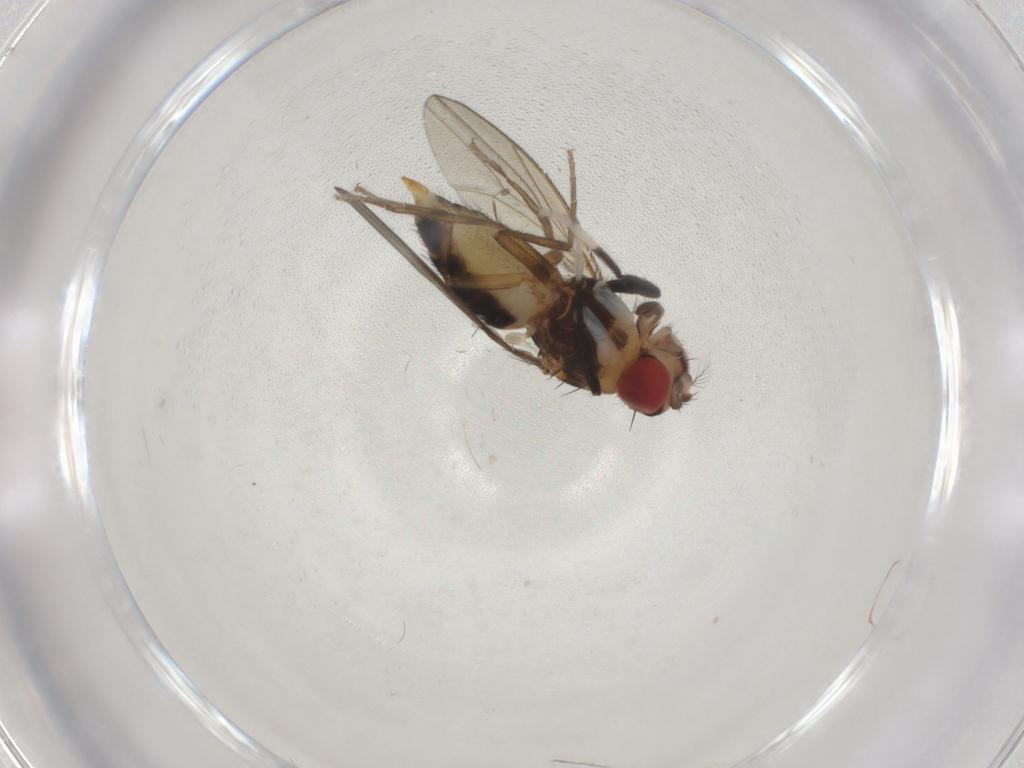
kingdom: Animalia
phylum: Arthropoda
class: Insecta
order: Diptera
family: Drosophilidae
